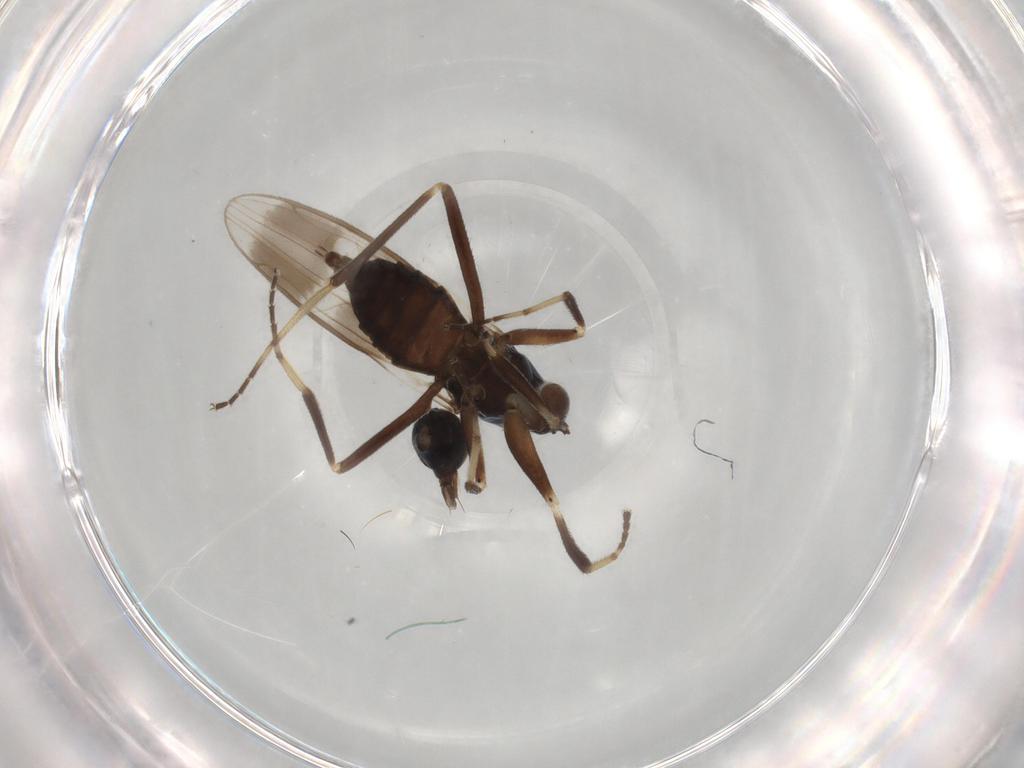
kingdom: Animalia
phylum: Arthropoda
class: Insecta
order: Diptera
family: Hybotidae
